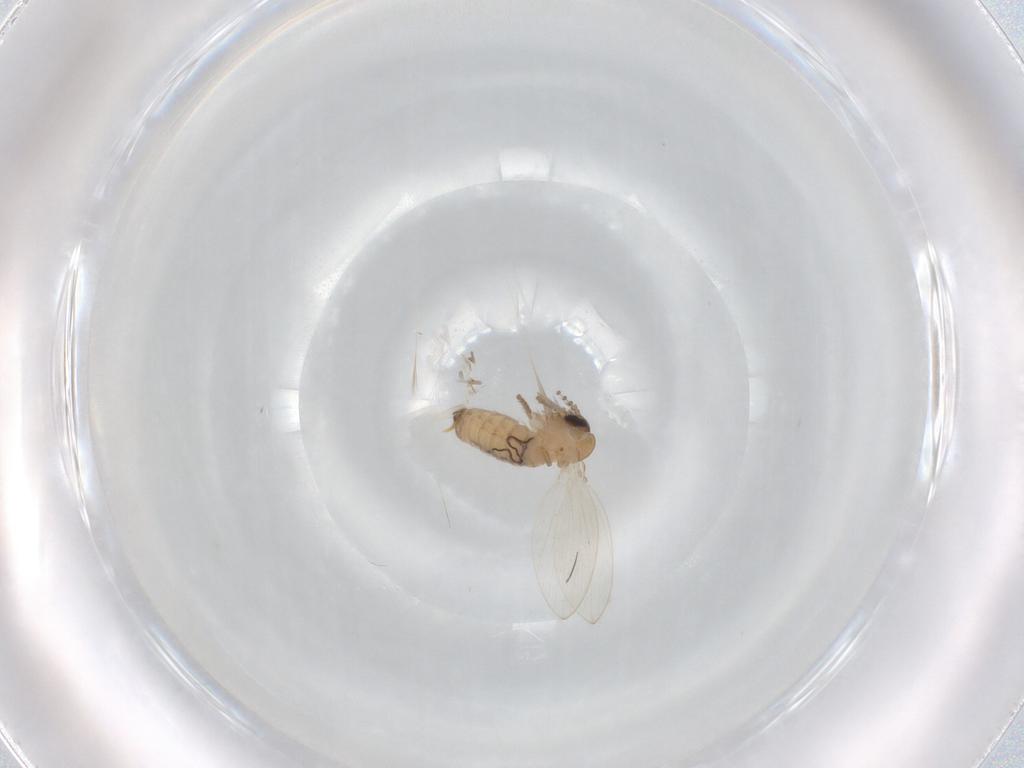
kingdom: Animalia
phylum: Arthropoda
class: Insecta
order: Diptera
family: Psychodidae
